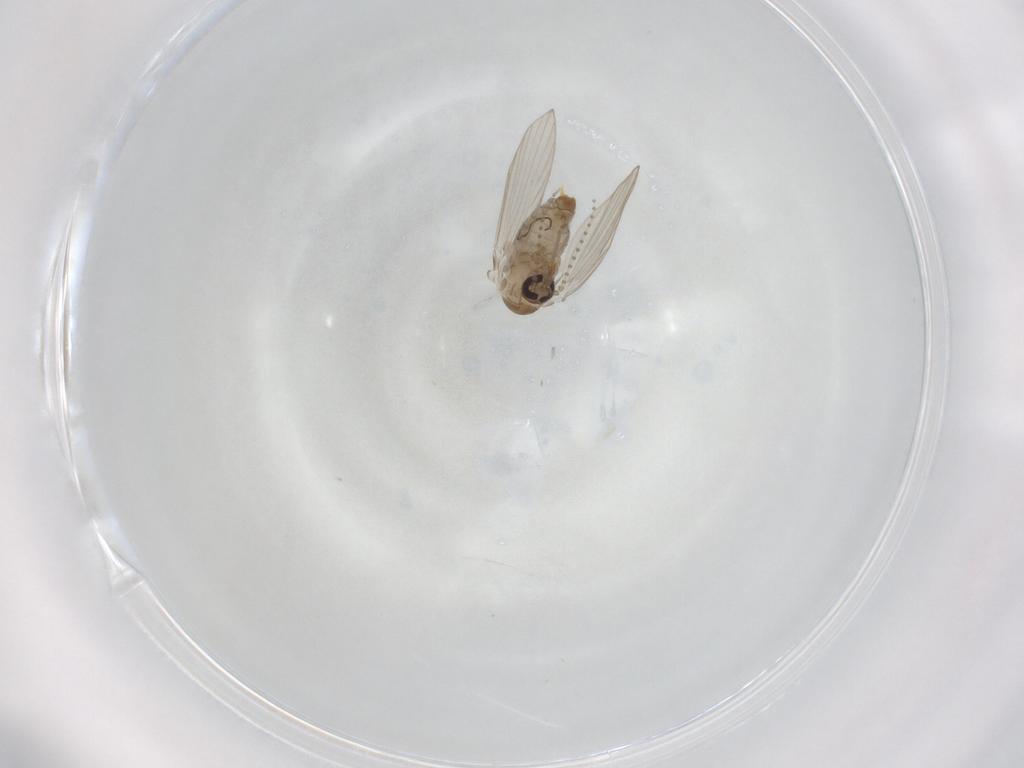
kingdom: Animalia
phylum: Arthropoda
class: Insecta
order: Diptera
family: Psychodidae
